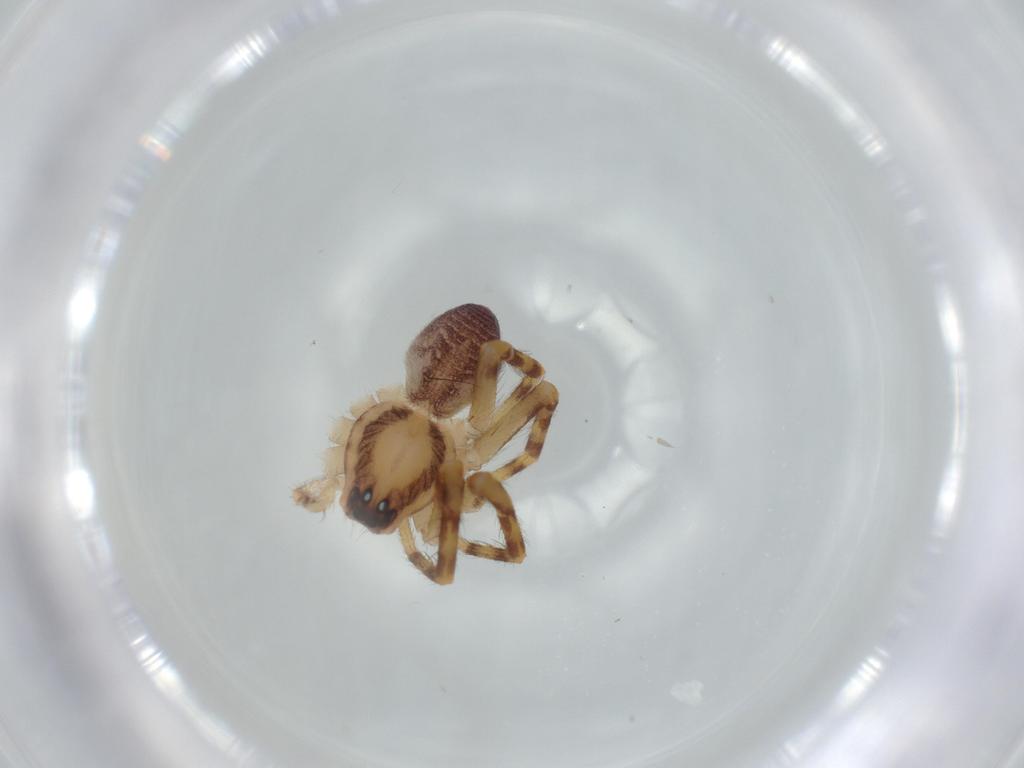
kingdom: Animalia
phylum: Arthropoda
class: Arachnida
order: Araneae
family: Corinnidae
